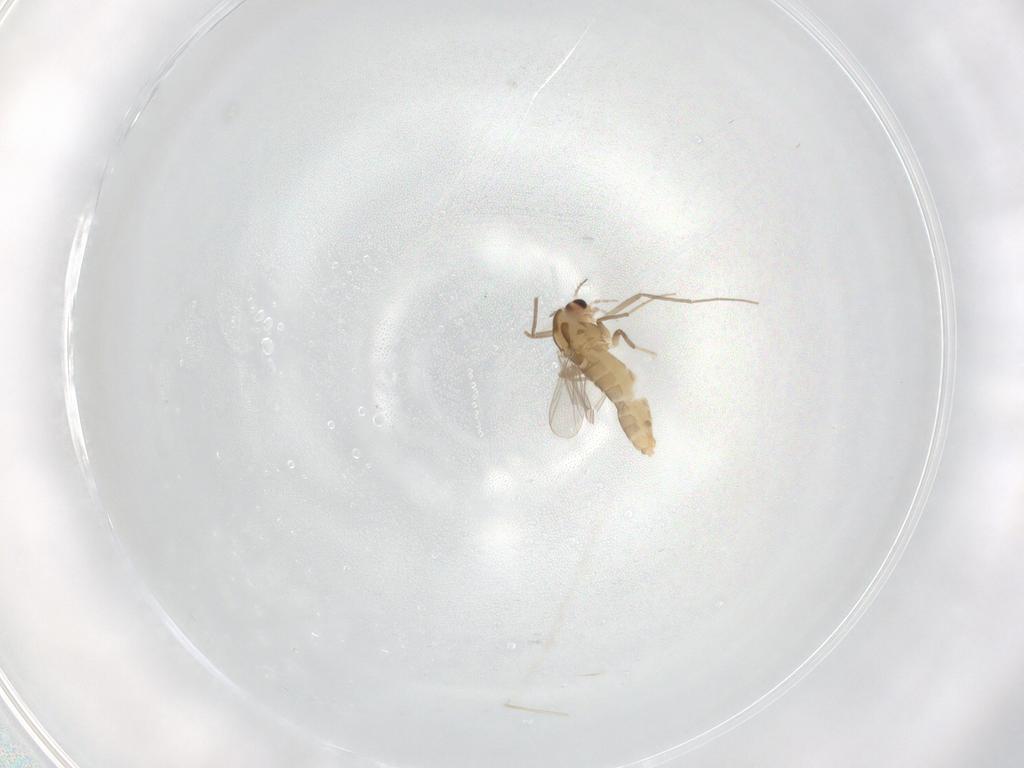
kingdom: Animalia
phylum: Arthropoda
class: Insecta
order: Diptera
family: Chironomidae
